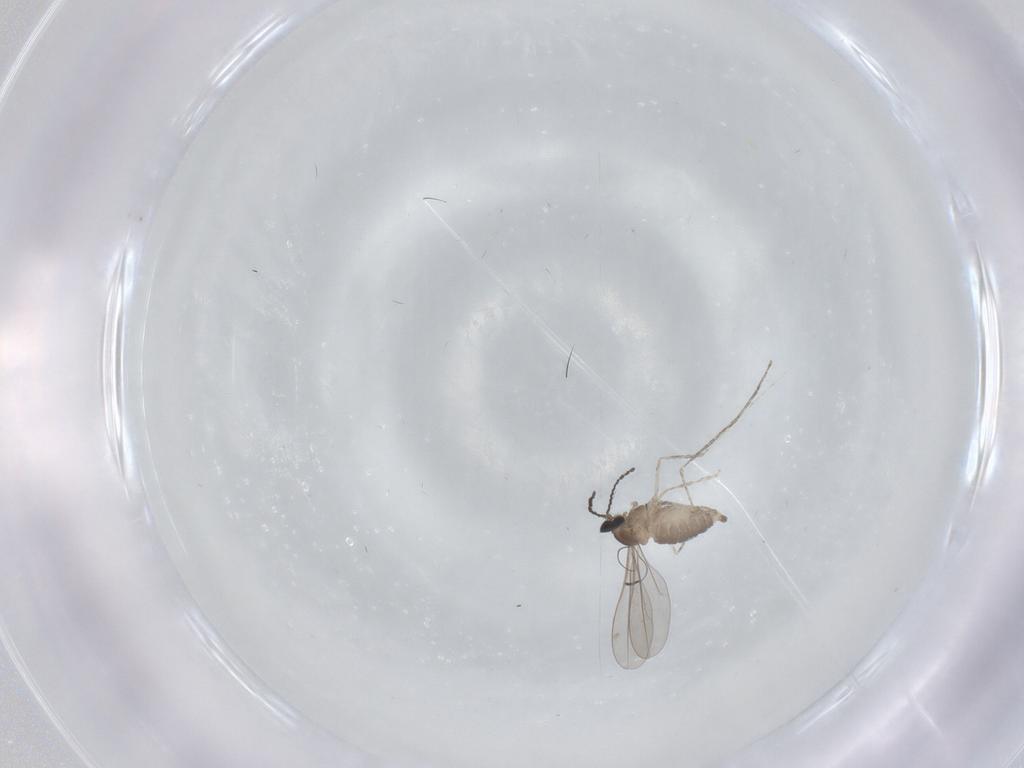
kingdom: Animalia
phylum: Arthropoda
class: Insecta
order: Diptera
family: Cecidomyiidae
